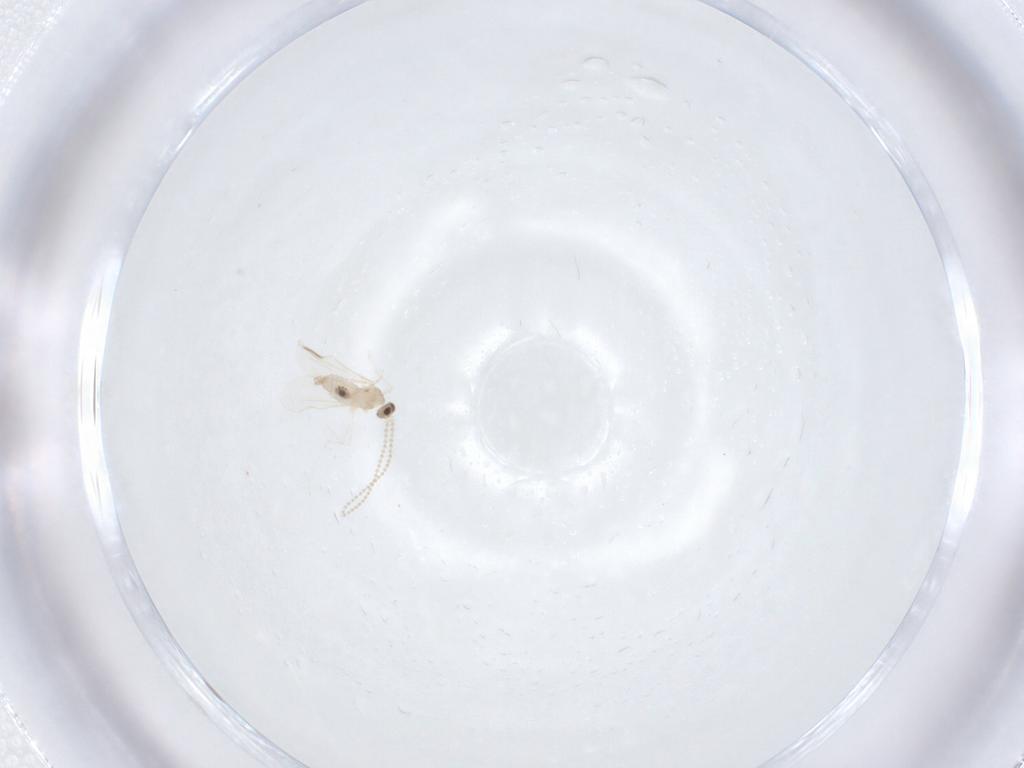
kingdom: Animalia
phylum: Arthropoda
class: Insecta
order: Diptera
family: Cecidomyiidae
